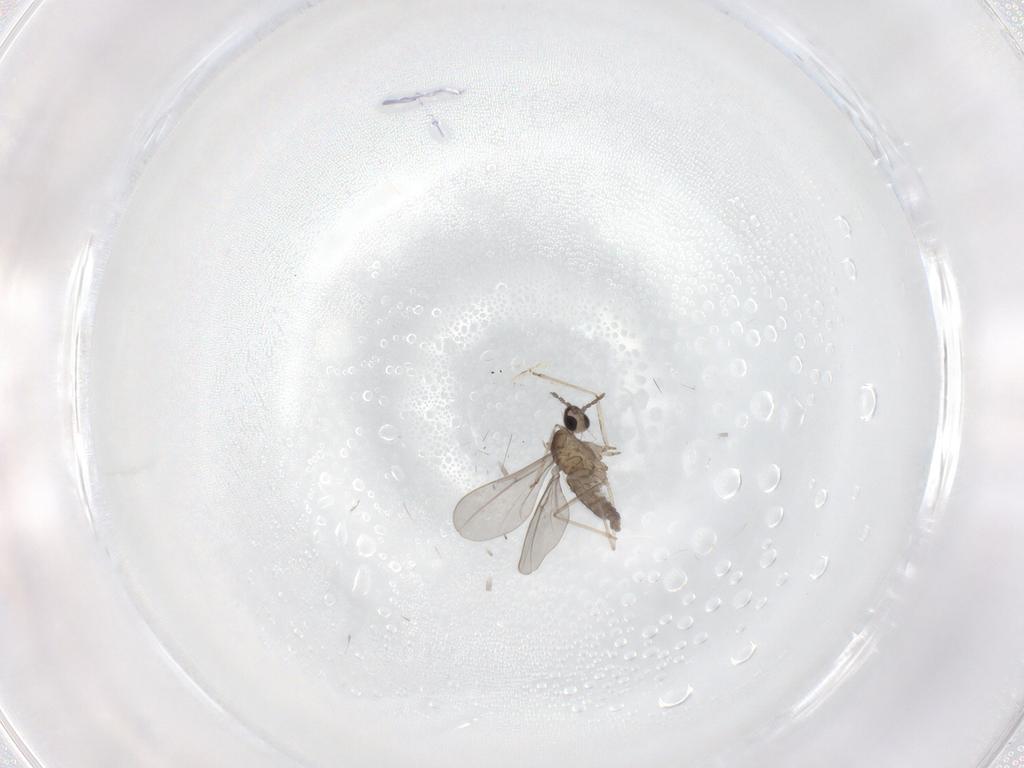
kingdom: Animalia
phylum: Arthropoda
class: Insecta
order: Diptera
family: Cecidomyiidae
